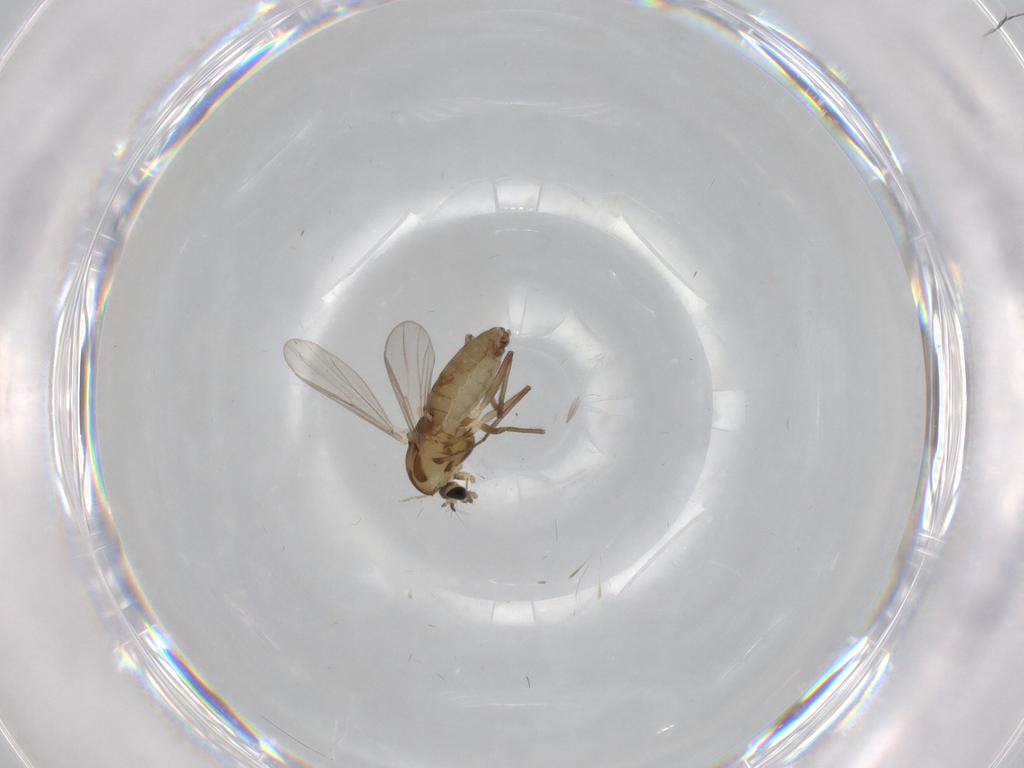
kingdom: Animalia
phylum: Arthropoda
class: Insecta
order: Diptera
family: Chironomidae
